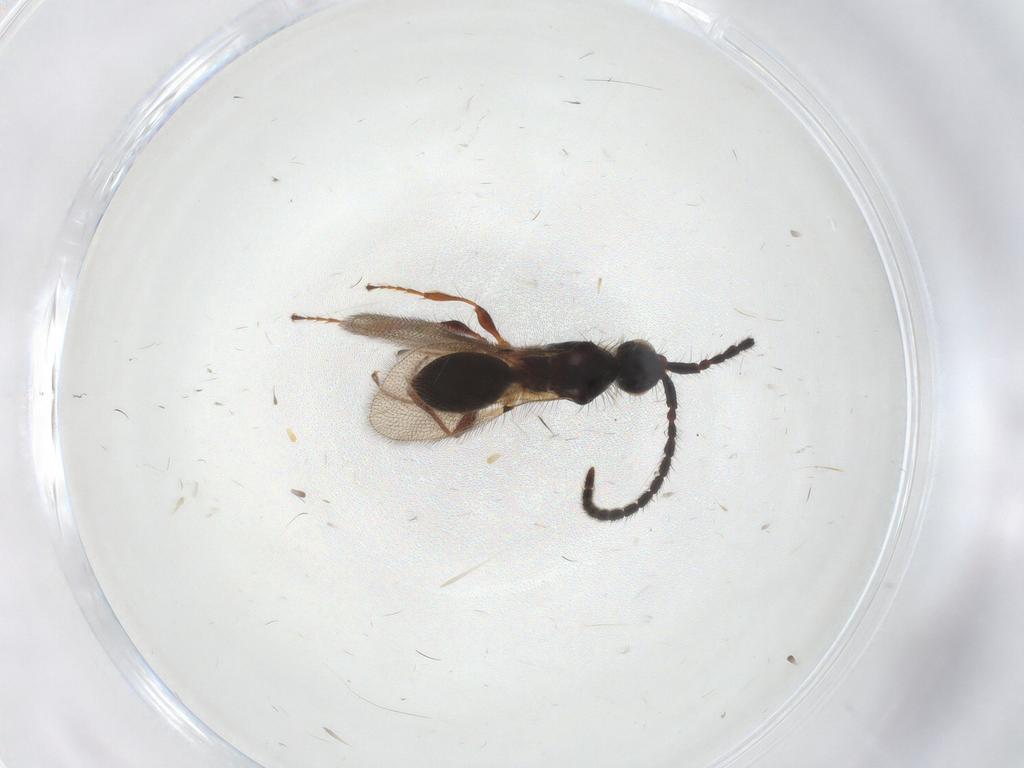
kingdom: Animalia
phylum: Arthropoda
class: Insecta
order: Hymenoptera
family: Diapriidae
